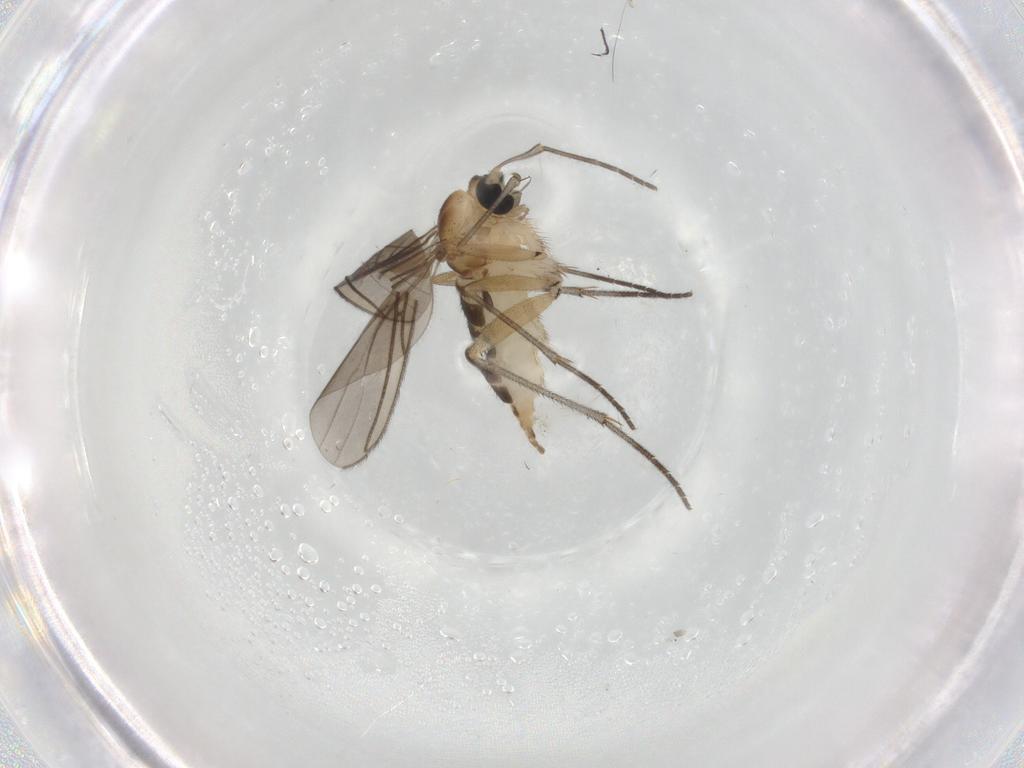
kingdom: Animalia
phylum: Arthropoda
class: Insecta
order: Diptera
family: Sciaridae
